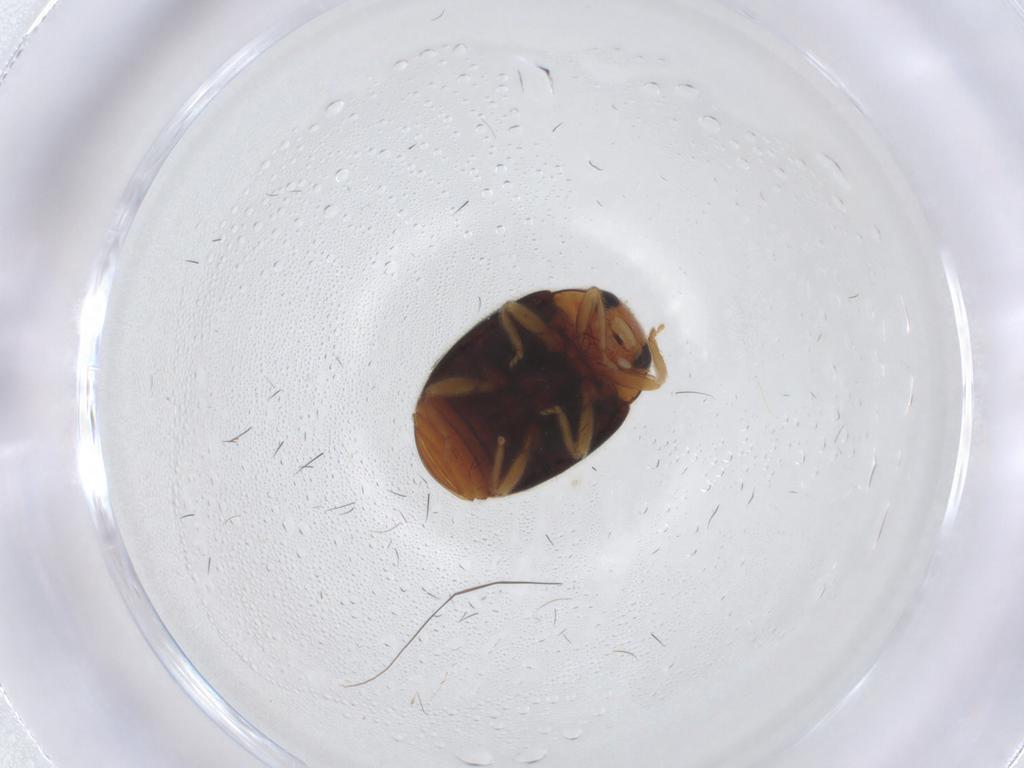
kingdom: Animalia
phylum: Arthropoda
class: Insecta
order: Coleoptera
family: Coccinellidae
